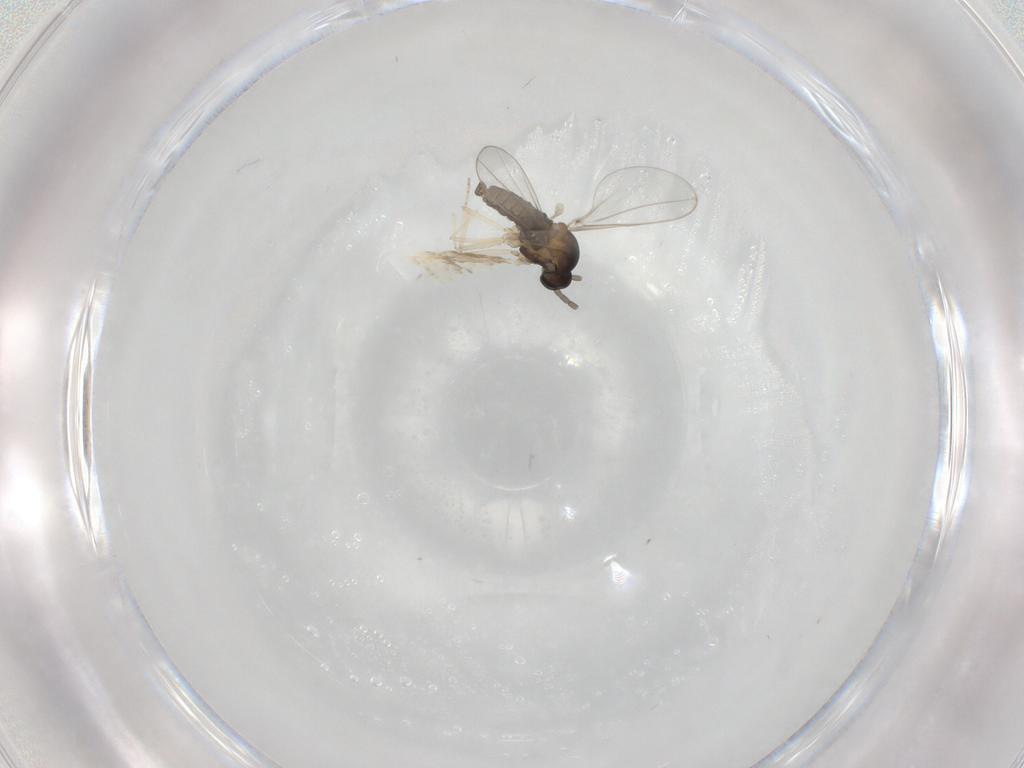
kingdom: Animalia
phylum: Arthropoda
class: Insecta
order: Diptera
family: Cecidomyiidae
